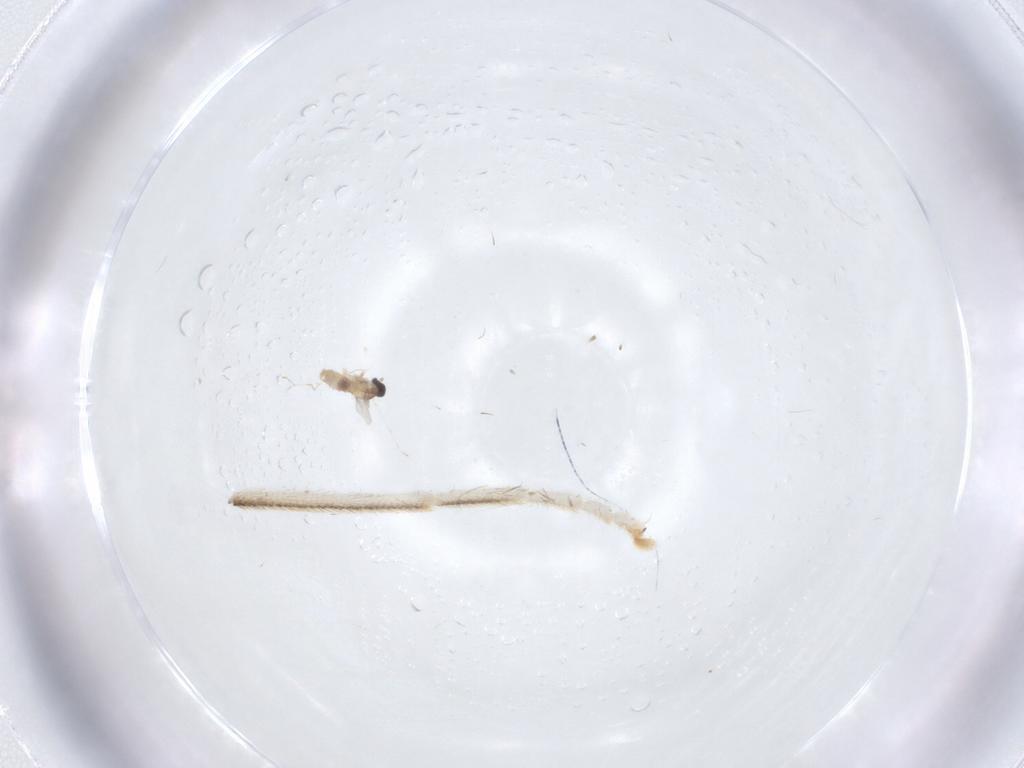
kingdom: Animalia
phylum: Arthropoda
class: Insecta
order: Diptera
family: Cecidomyiidae
